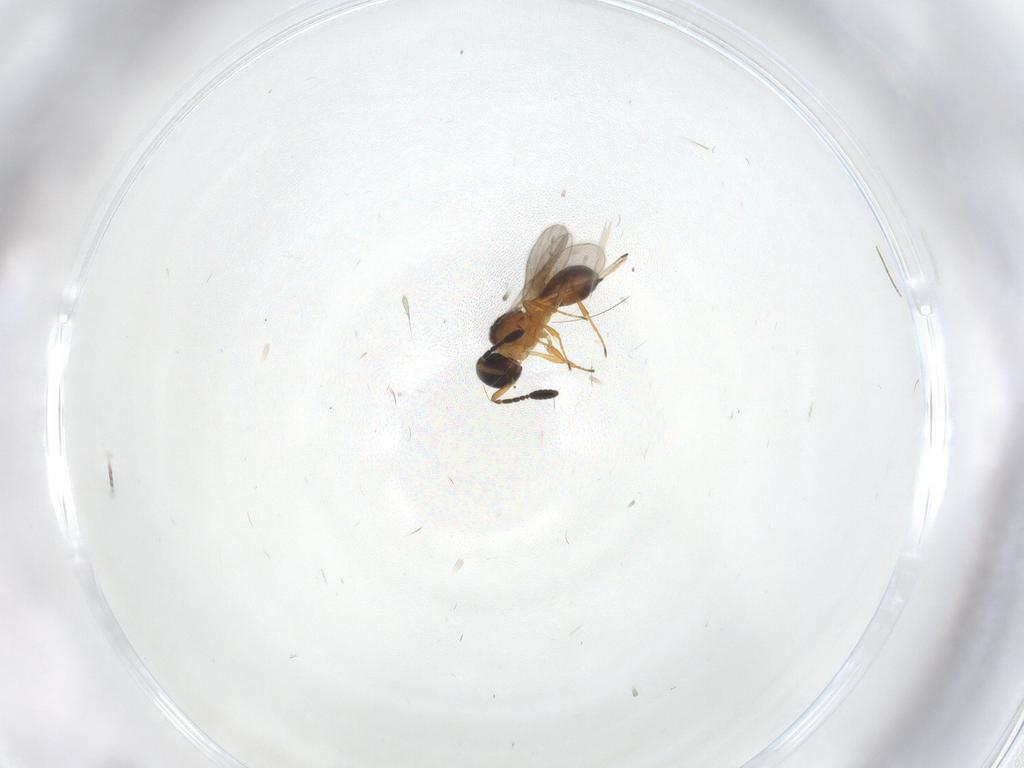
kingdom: Animalia
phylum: Arthropoda
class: Insecta
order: Hymenoptera
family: Scelionidae
